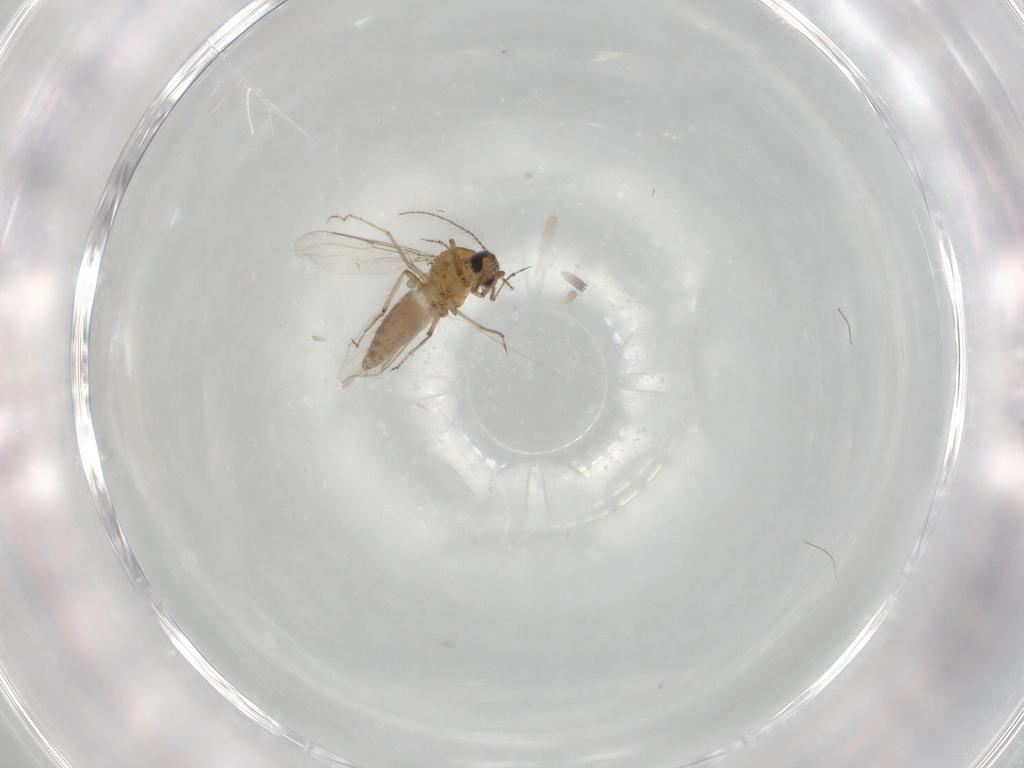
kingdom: Animalia
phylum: Arthropoda
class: Insecta
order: Diptera
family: Ceratopogonidae
